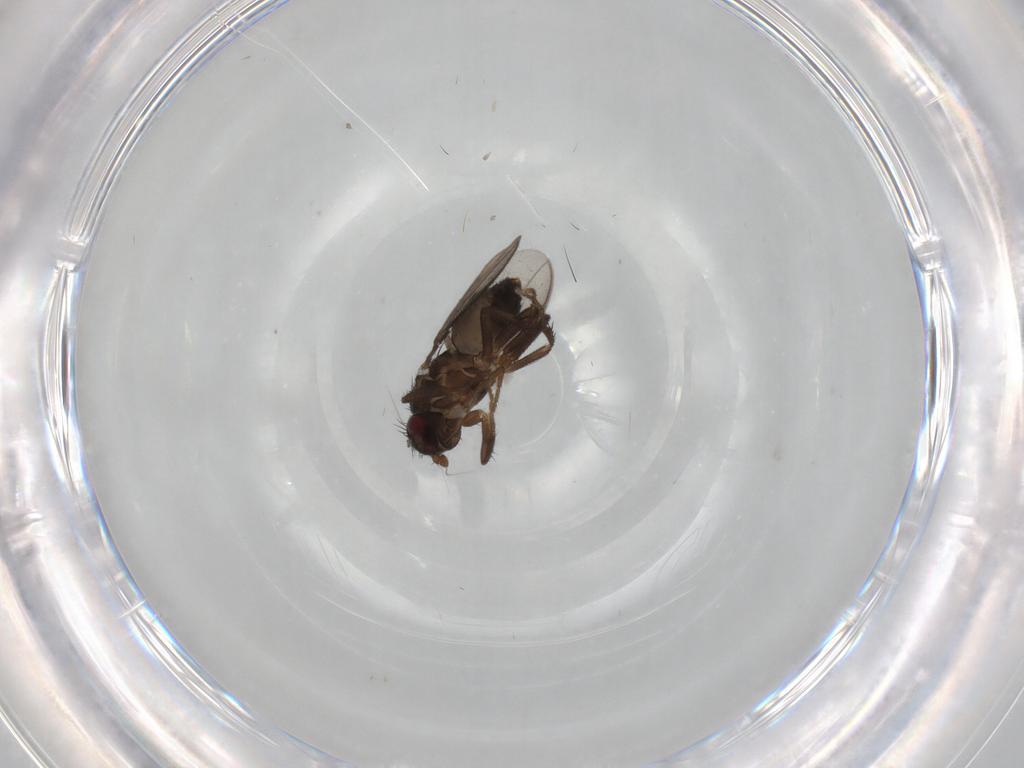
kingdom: Animalia
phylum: Arthropoda
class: Insecta
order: Diptera
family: Sphaeroceridae
